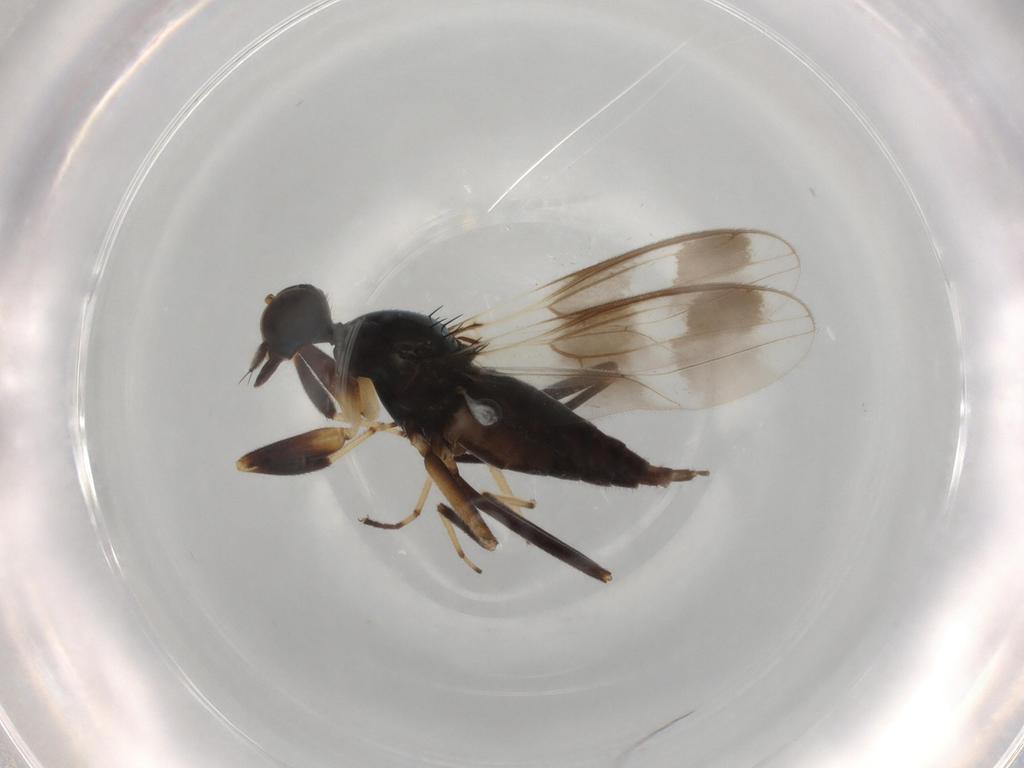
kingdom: Animalia
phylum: Arthropoda
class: Insecta
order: Diptera
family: Sciaridae
